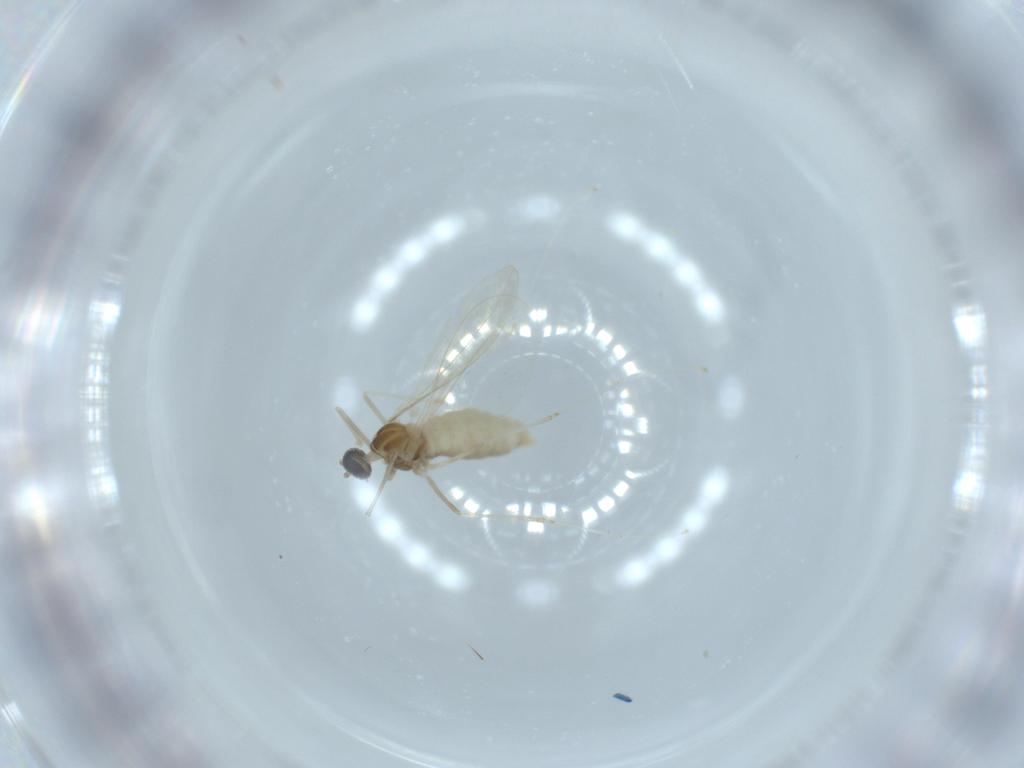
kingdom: Animalia
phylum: Arthropoda
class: Insecta
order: Diptera
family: Cecidomyiidae
